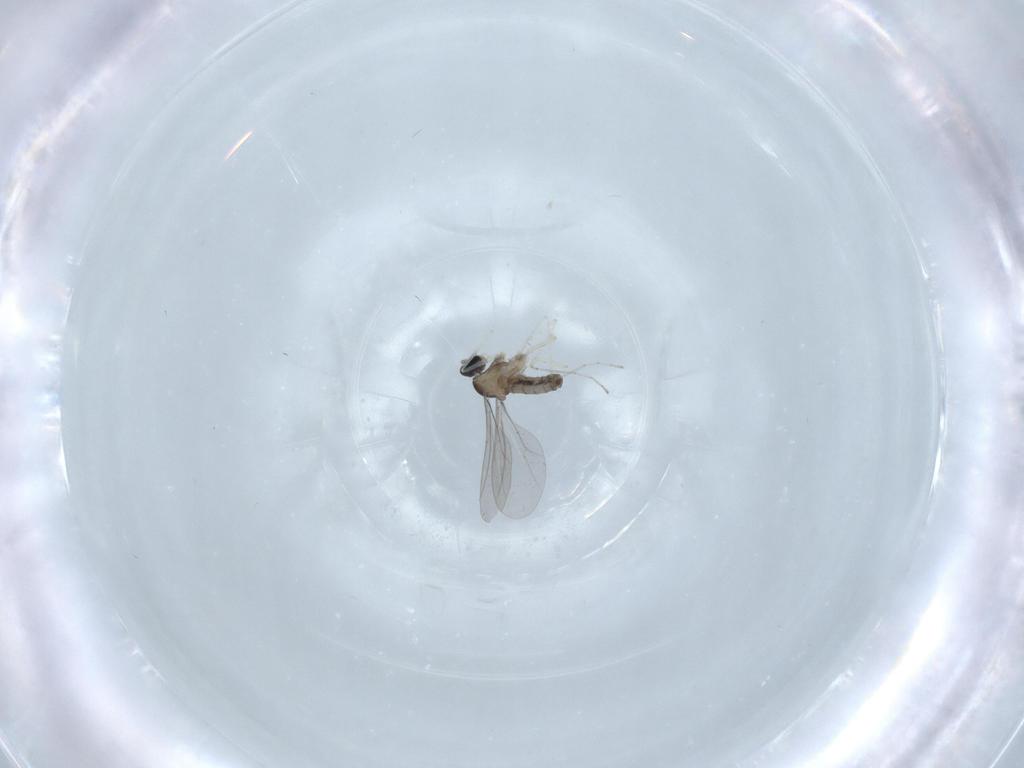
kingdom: Animalia
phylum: Arthropoda
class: Insecta
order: Diptera
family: Cecidomyiidae
